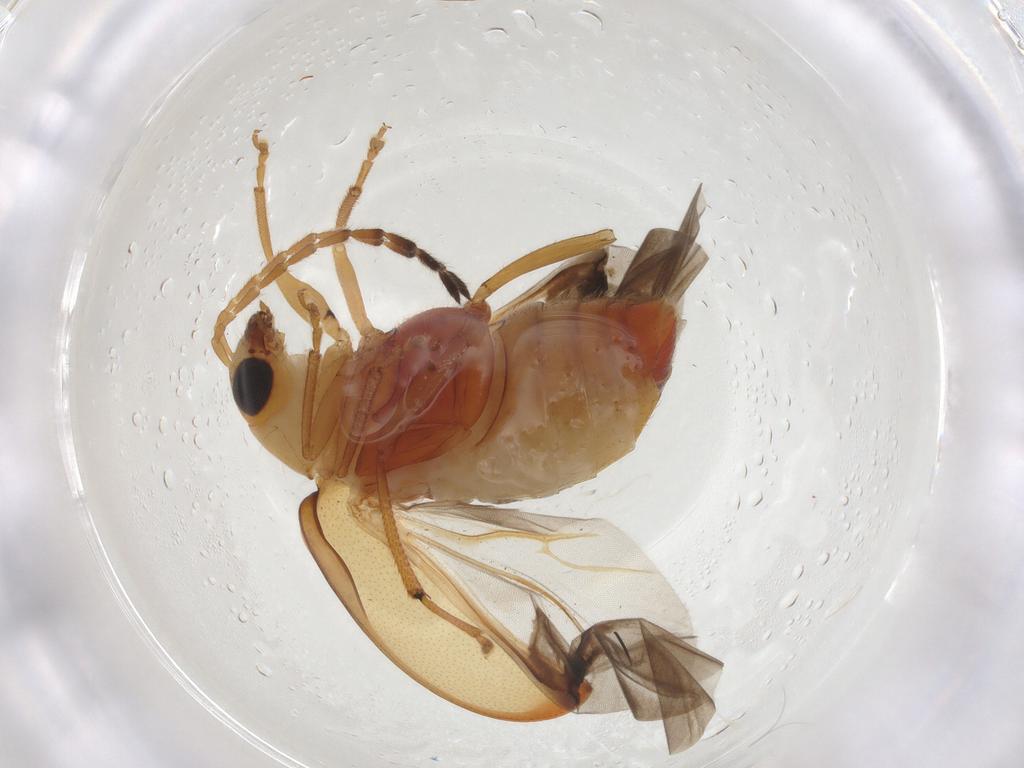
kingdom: Animalia
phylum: Arthropoda
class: Insecta
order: Coleoptera
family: Chrysomelidae
